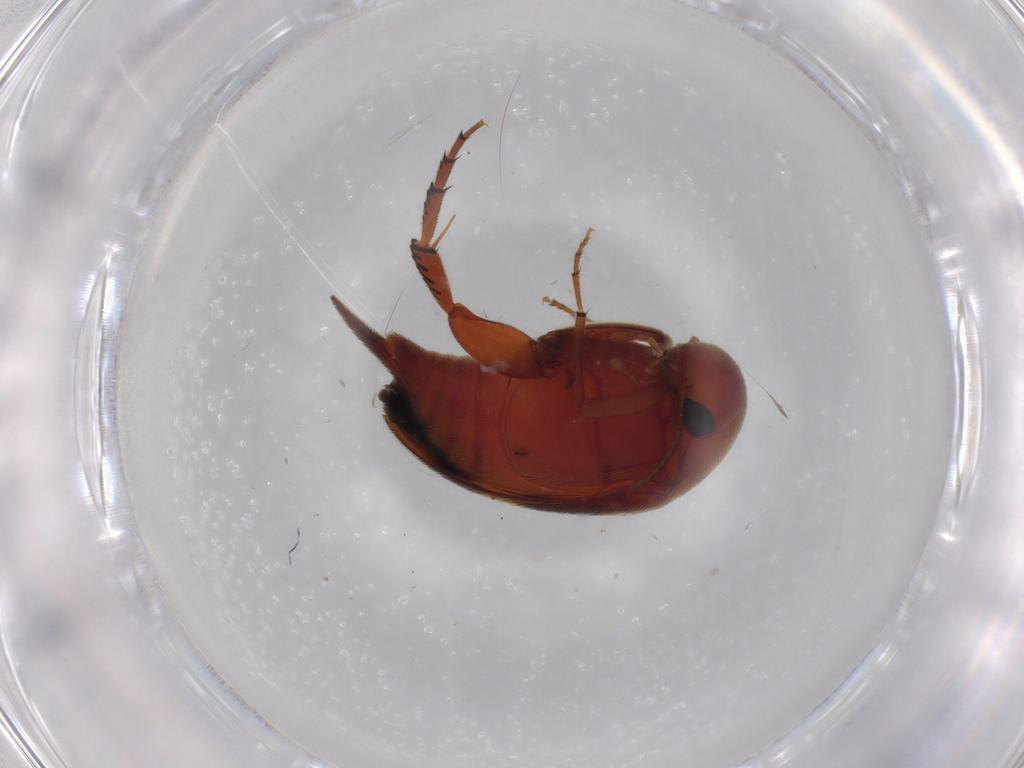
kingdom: Animalia
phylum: Arthropoda
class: Insecta
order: Coleoptera
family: Mordellidae
